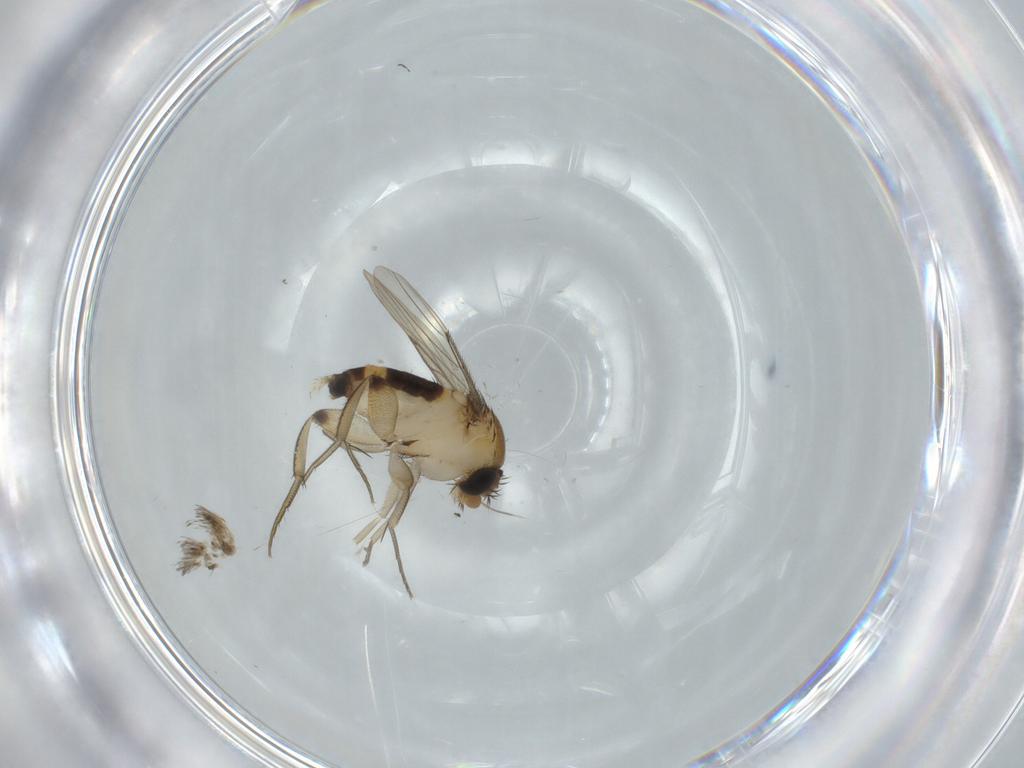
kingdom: Animalia
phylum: Arthropoda
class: Insecta
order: Diptera
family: Phoridae
